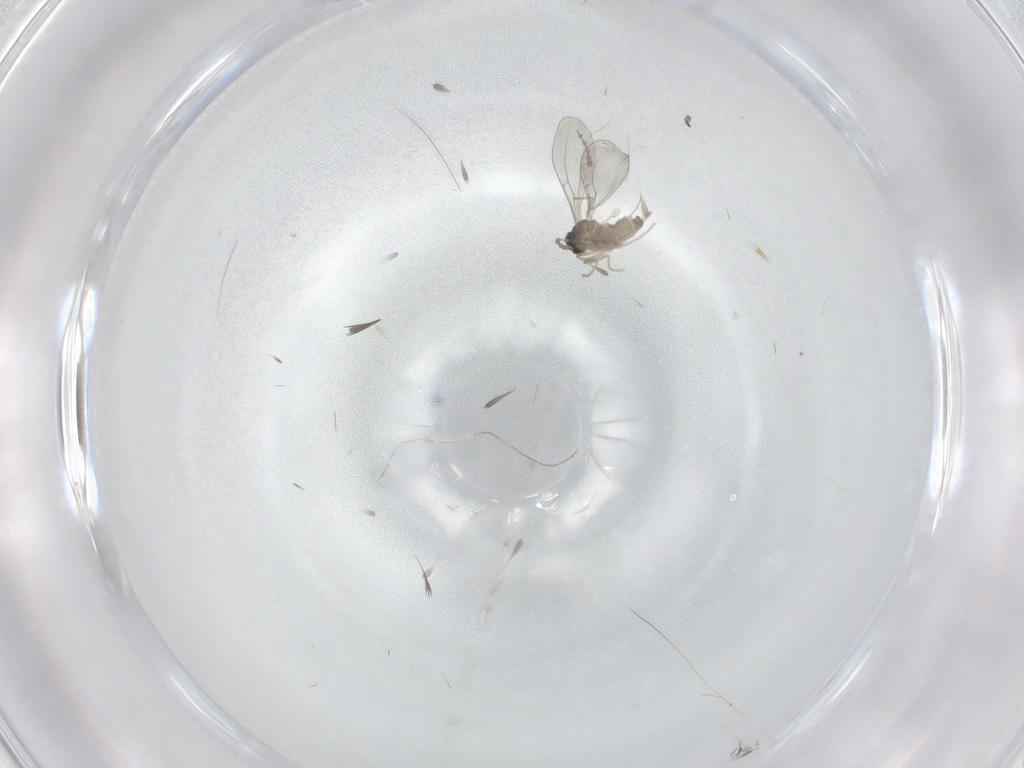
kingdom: Animalia
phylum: Arthropoda
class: Insecta
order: Diptera
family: Cecidomyiidae
